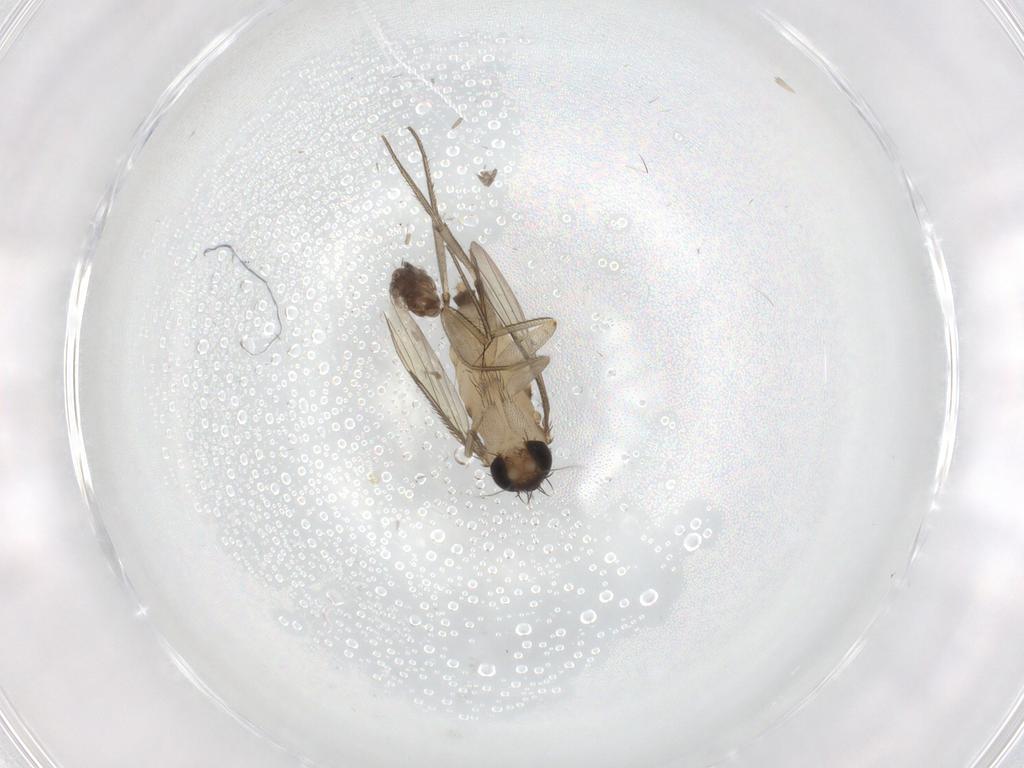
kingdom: Animalia
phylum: Arthropoda
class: Insecta
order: Diptera
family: Phoridae
